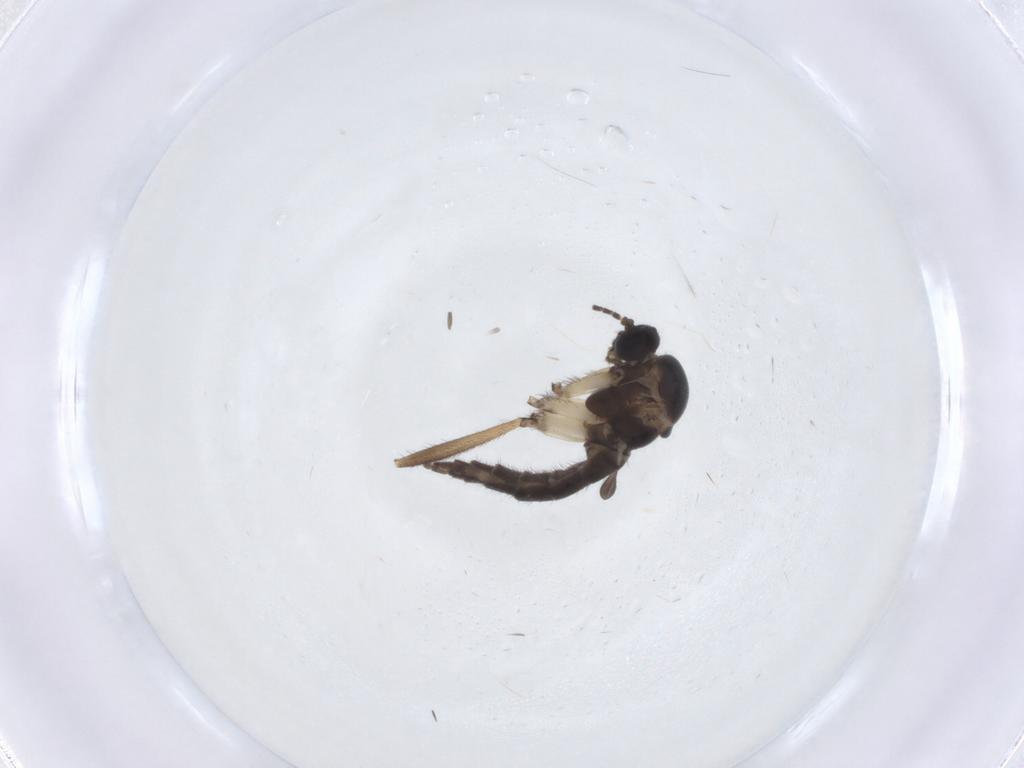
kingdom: Animalia
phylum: Arthropoda
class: Insecta
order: Diptera
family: Sciaridae
